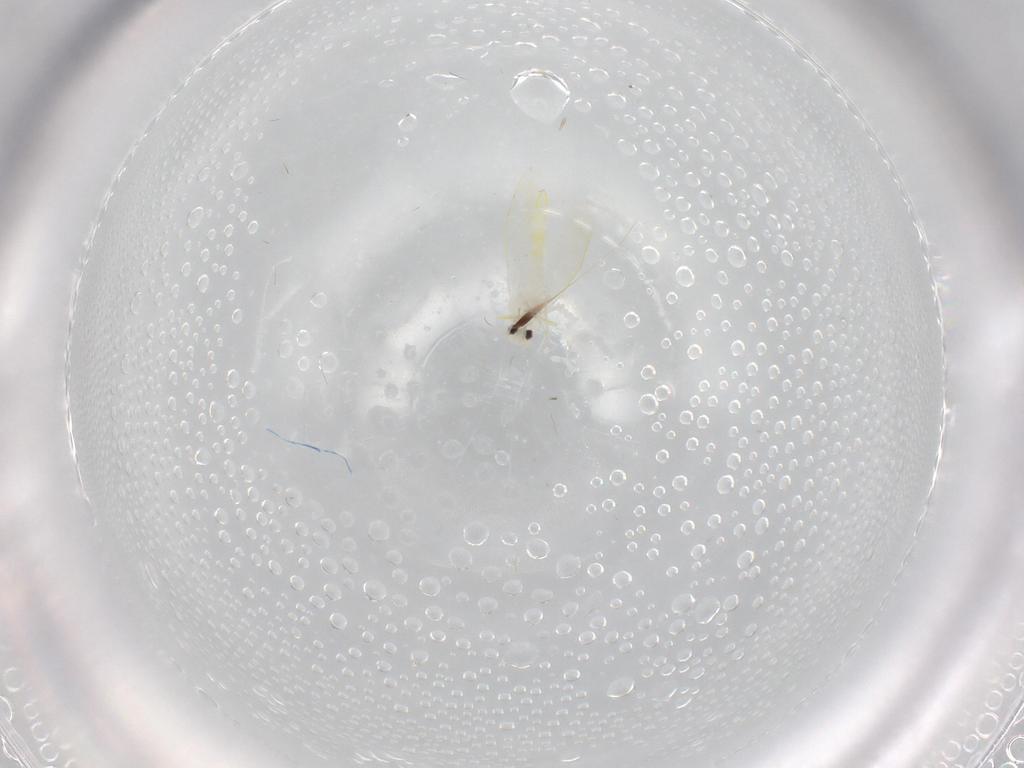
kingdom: Animalia
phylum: Arthropoda
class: Insecta
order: Hemiptera
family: Aleyrodidae
